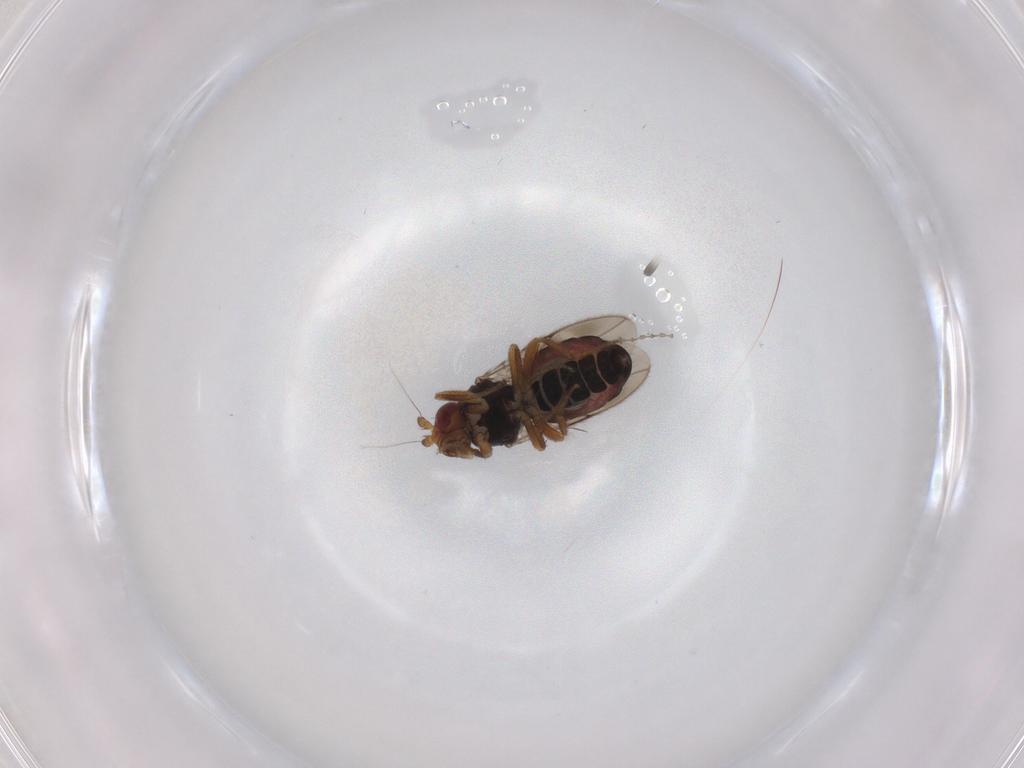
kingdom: Animalia
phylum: Arthropoda
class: Insecta
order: Diptera
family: Sphaeroceridae
